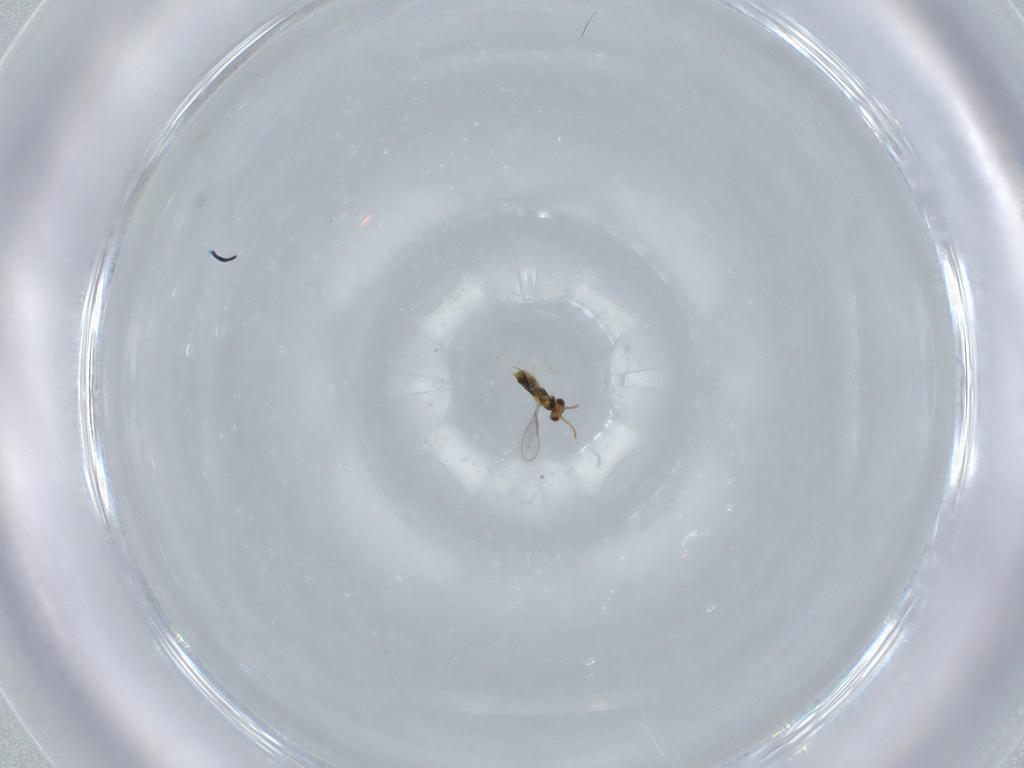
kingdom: Animalia
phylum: Arthropoda
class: Insecta
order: Hymenoptera
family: Aphelinidae
